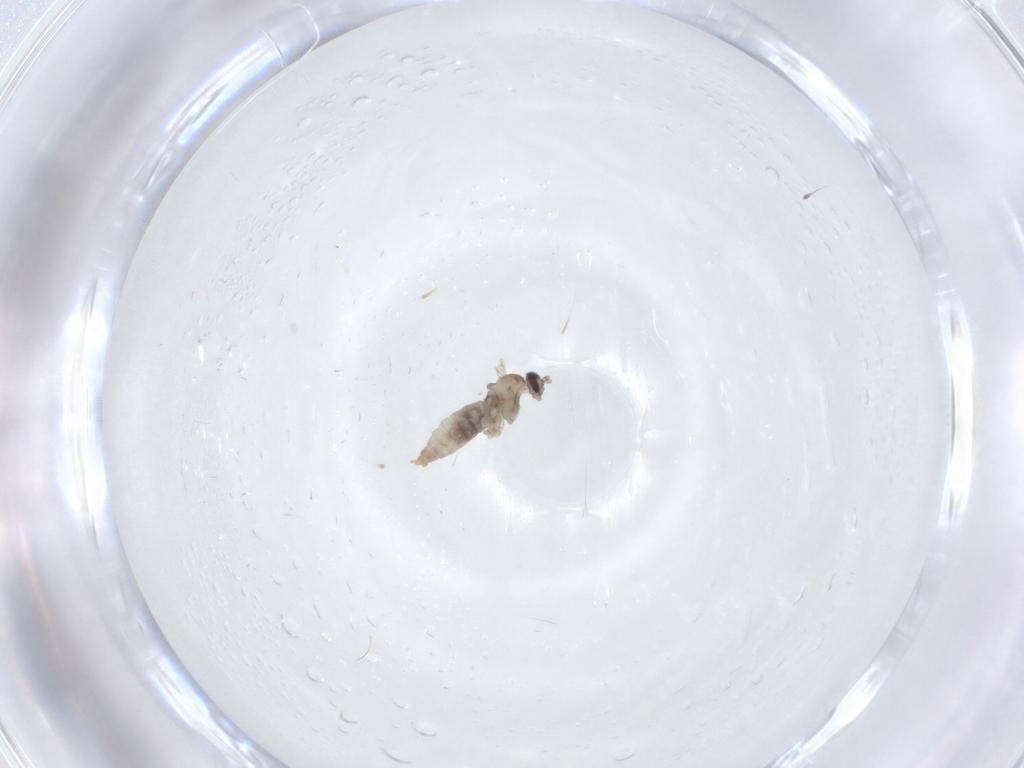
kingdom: Animalia
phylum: Arthropoda
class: Insecta
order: Diptera
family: Cecidomyiidae
